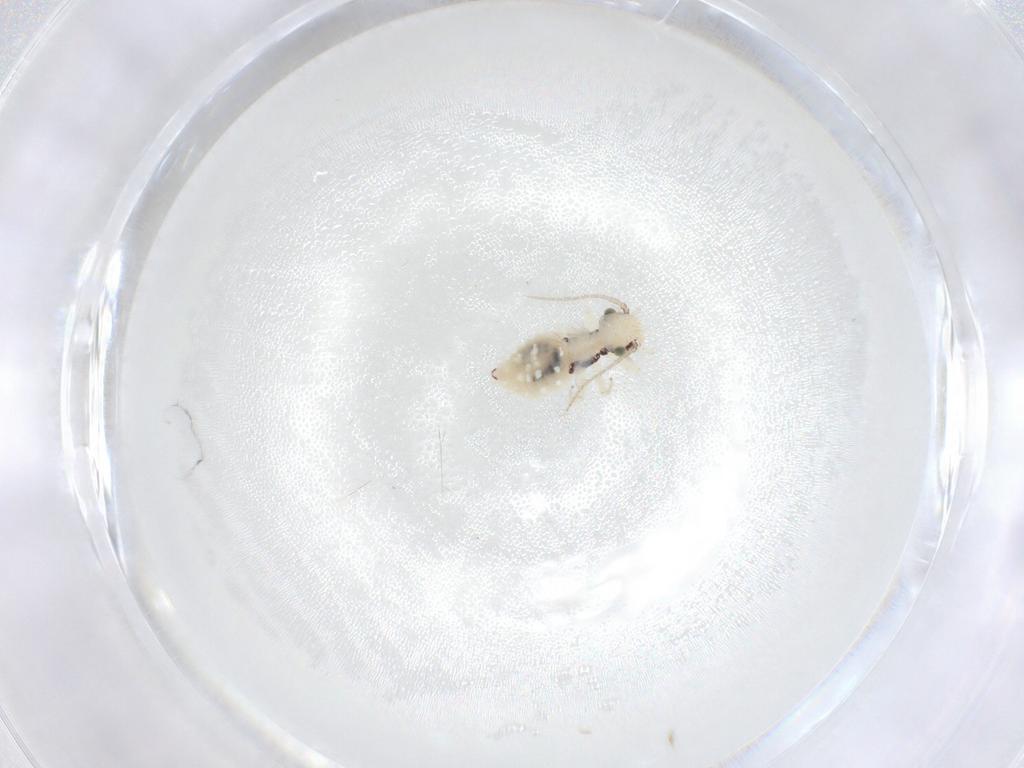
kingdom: Animalia
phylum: Arthropoda
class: Insecta
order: Psocodea
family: Philotarsidae
